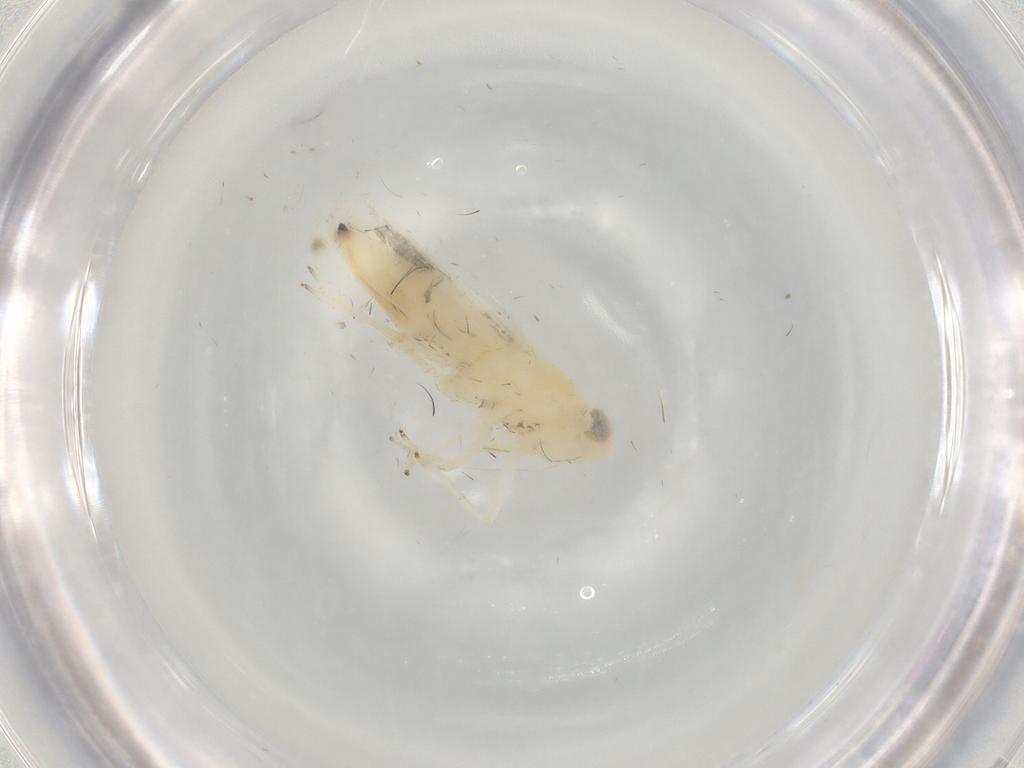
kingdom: Animalia
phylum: Arthropoda
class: Insecta
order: Hemiptera
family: Cicadellidae
